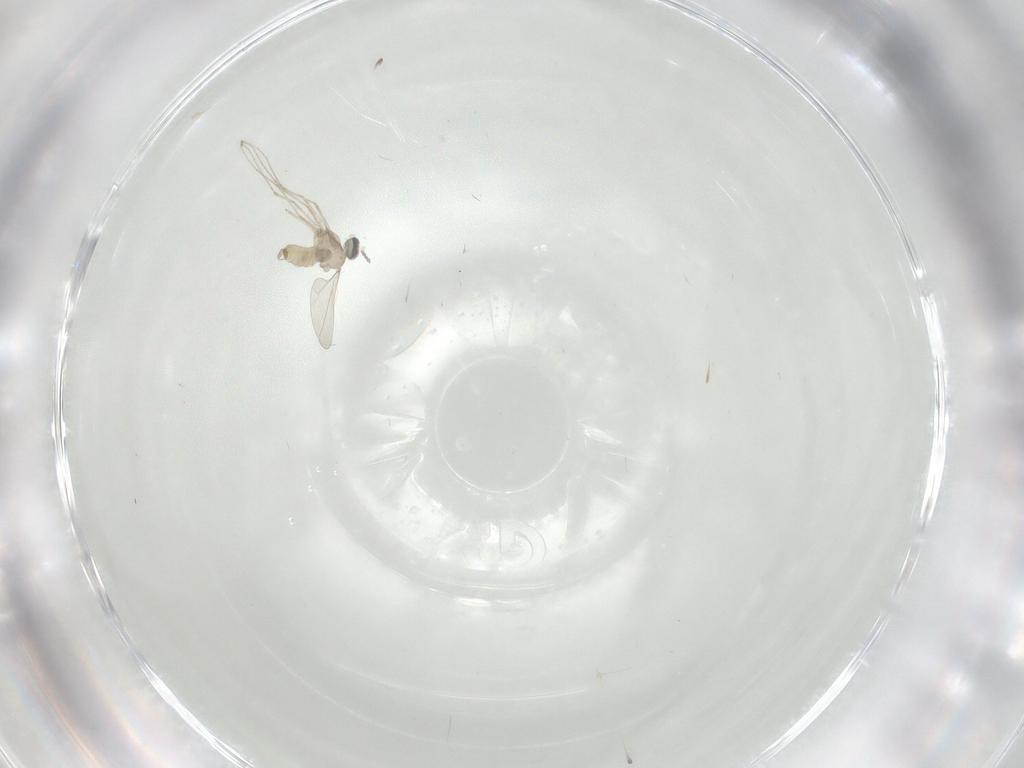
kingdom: Animalia
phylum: Arthropoda
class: Insecta
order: Diptera
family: Cecidomyiidae
